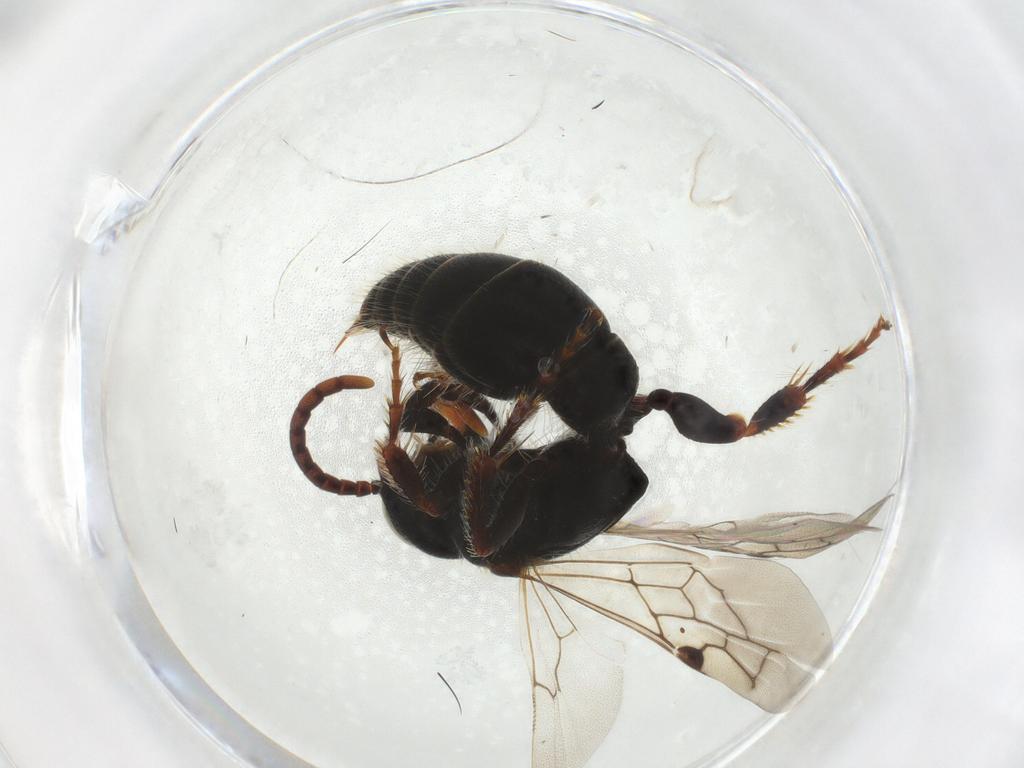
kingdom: Animalia
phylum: Arthropoda
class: Insecta
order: Hymenoptera
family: Tiphiidae
